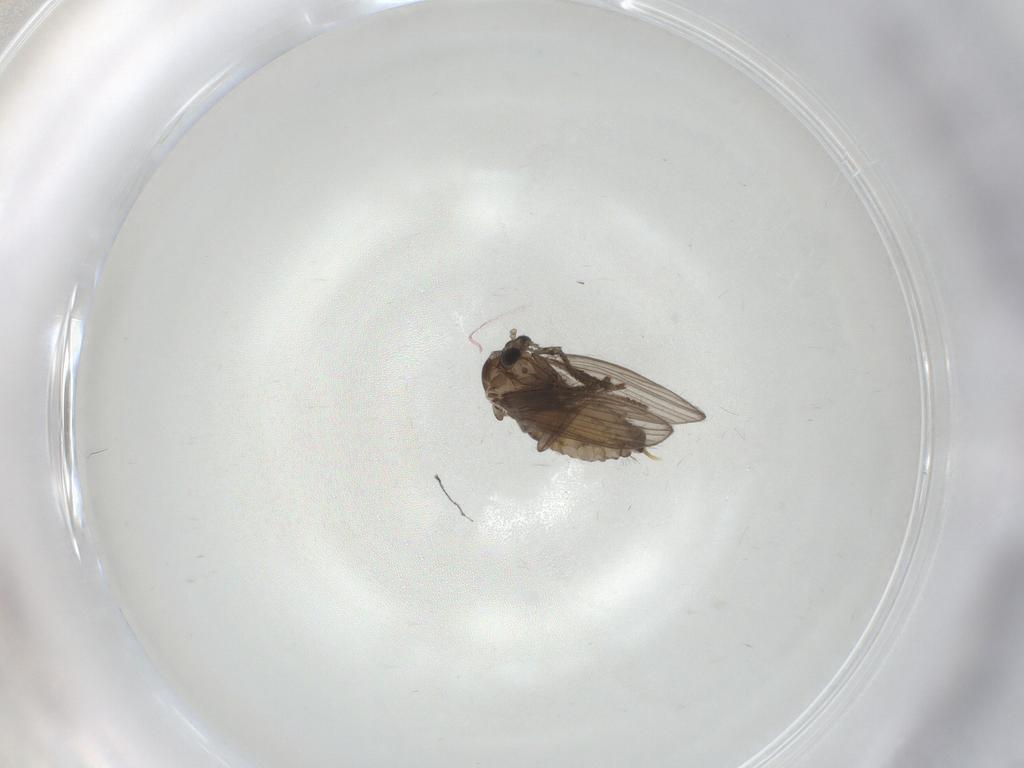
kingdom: Animalia
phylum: Arthropoda
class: Insecta
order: Diptera
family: Psychodidae
